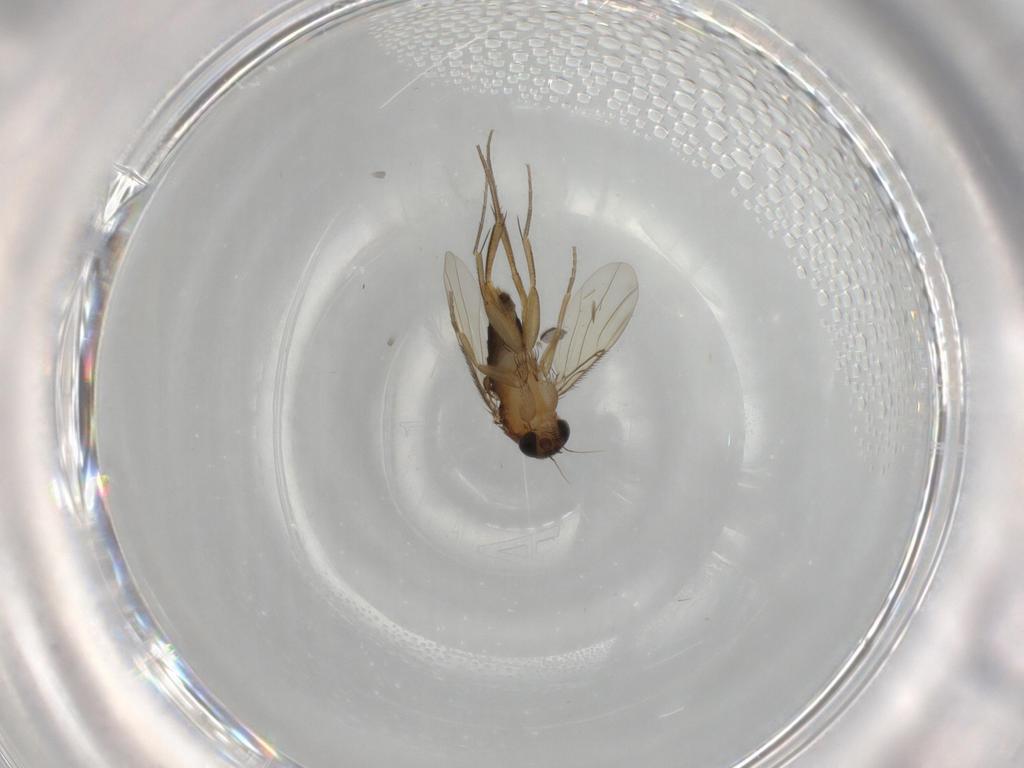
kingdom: Animalia
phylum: Arthropoda
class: Insecta
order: Diptera
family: Phoridae
